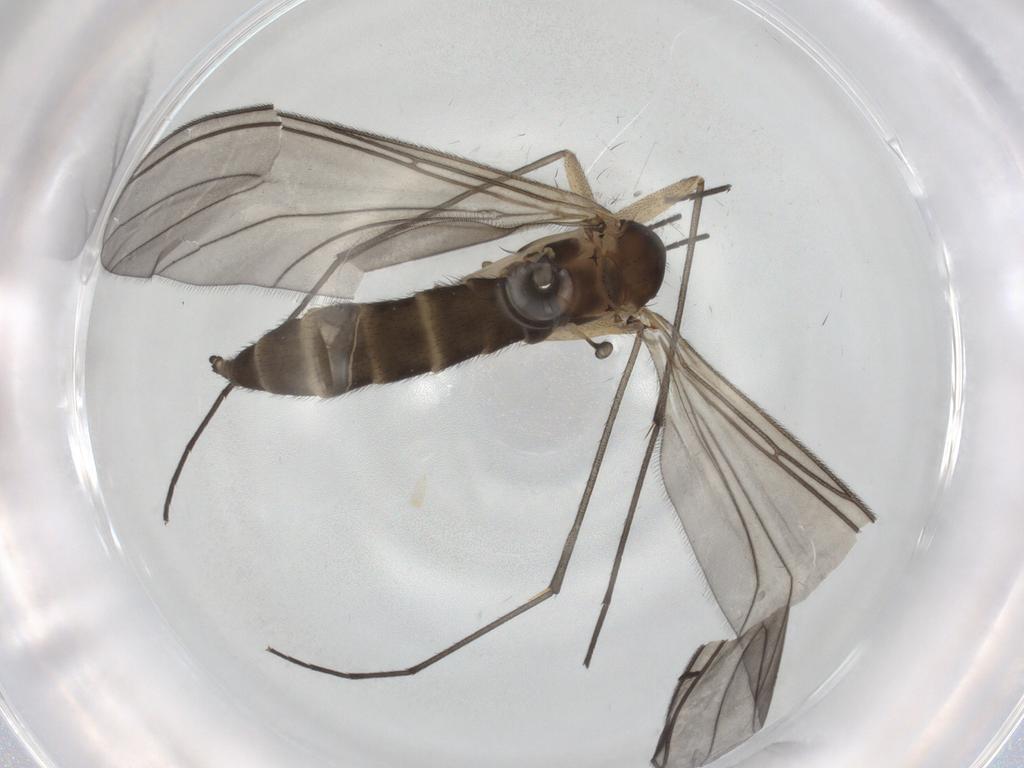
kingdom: Animalia
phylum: Arthropoda
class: Insecta
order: Diptera
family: Sciaridae
